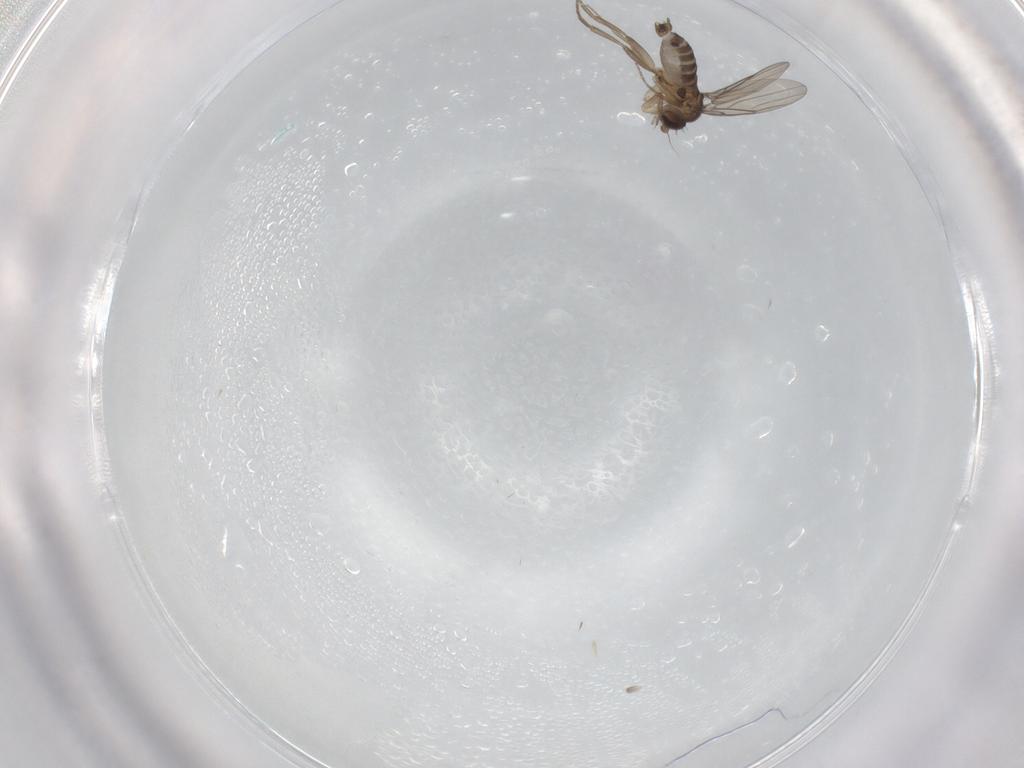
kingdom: Animalia
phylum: Arthropoda
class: Insecta
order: Diptera
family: Phoridae
